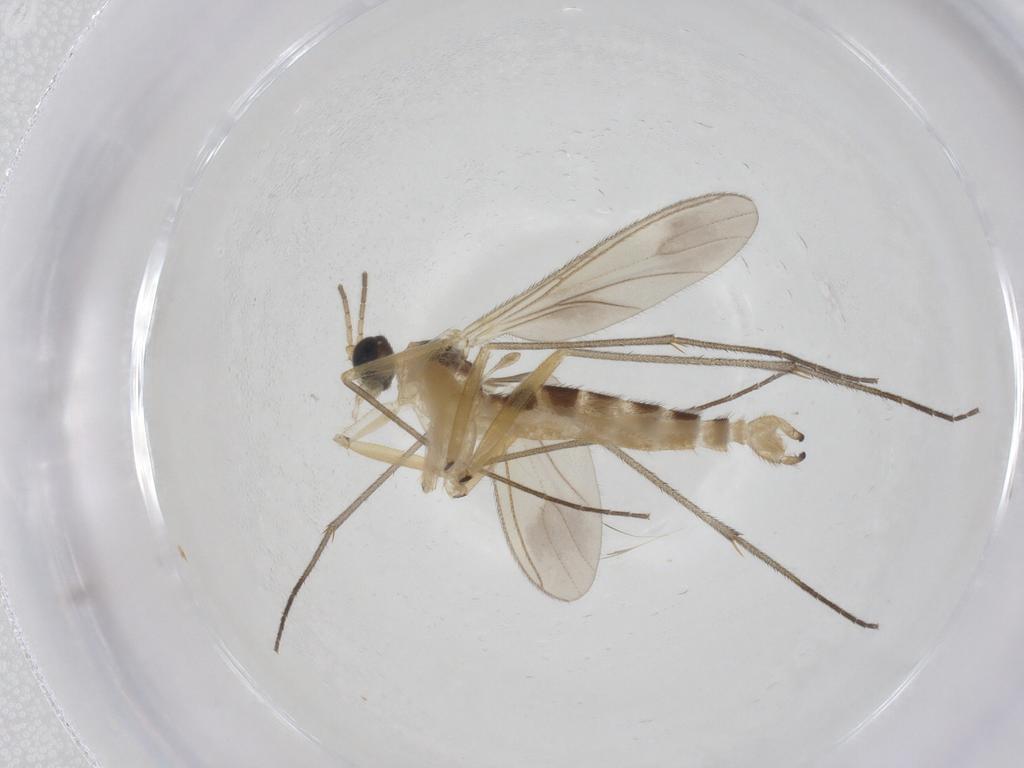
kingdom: Animalia
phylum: Arthropoda
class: Insecta
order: Diptera
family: Sciaridae
